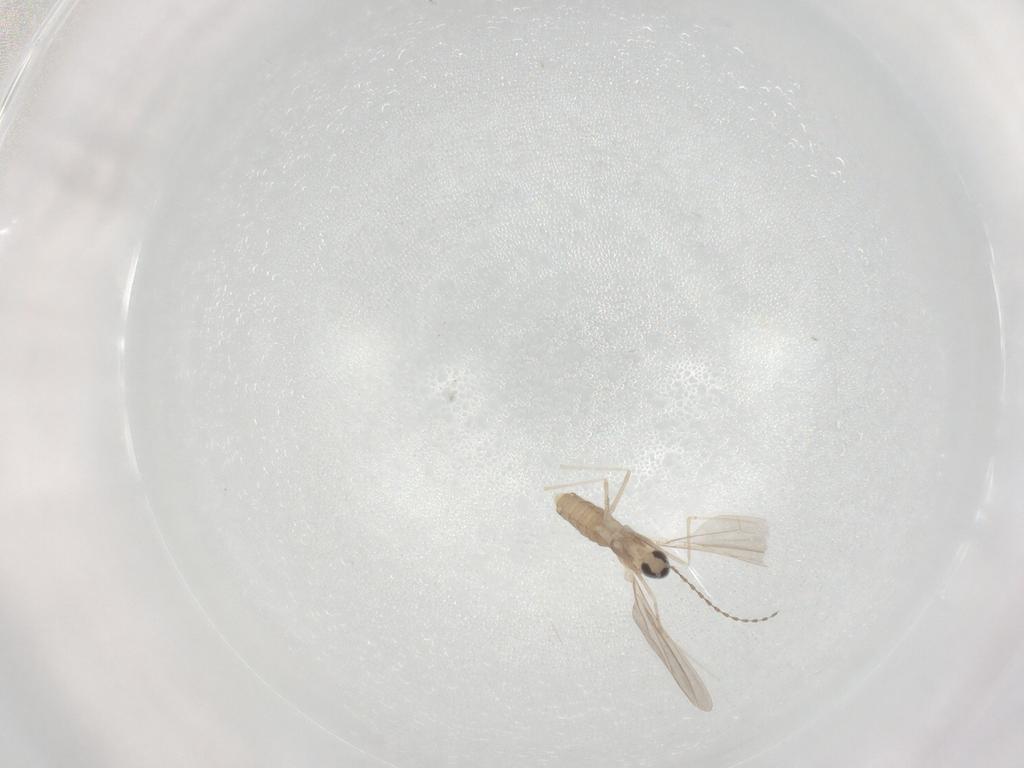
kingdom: Animalia
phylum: Arthropoda
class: Insecta
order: Diptera
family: Cecidomyiidae
